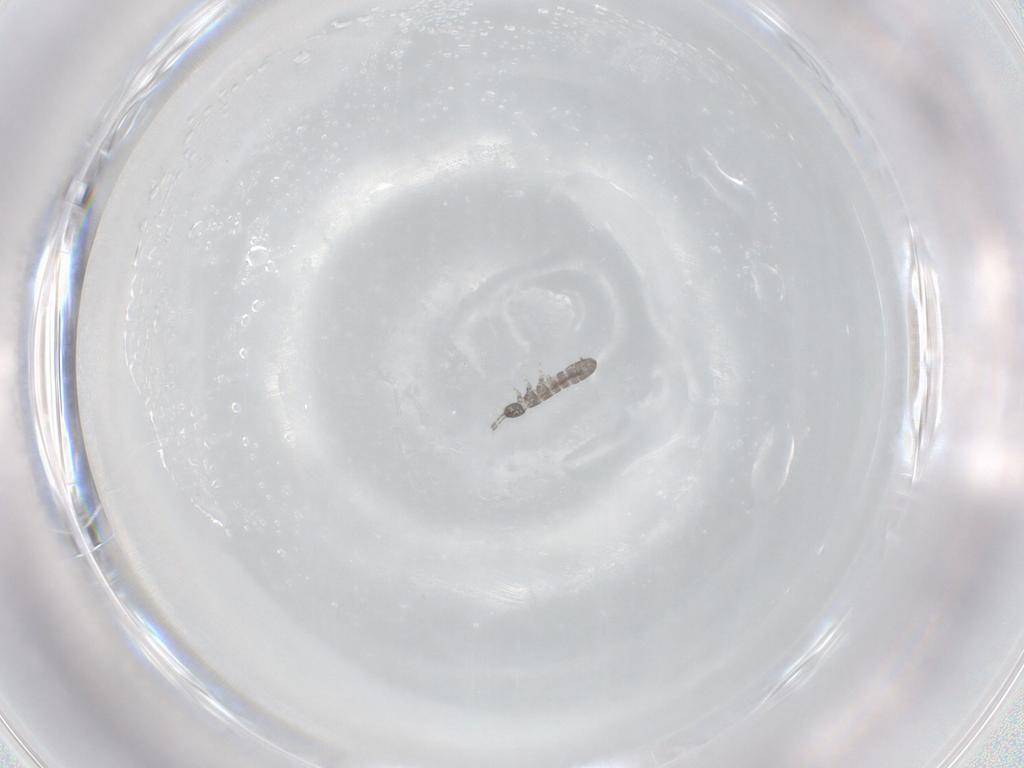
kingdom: Animalia
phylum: Arthropoda
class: Collembola
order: Entomobryomorpha
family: Isotomidae
